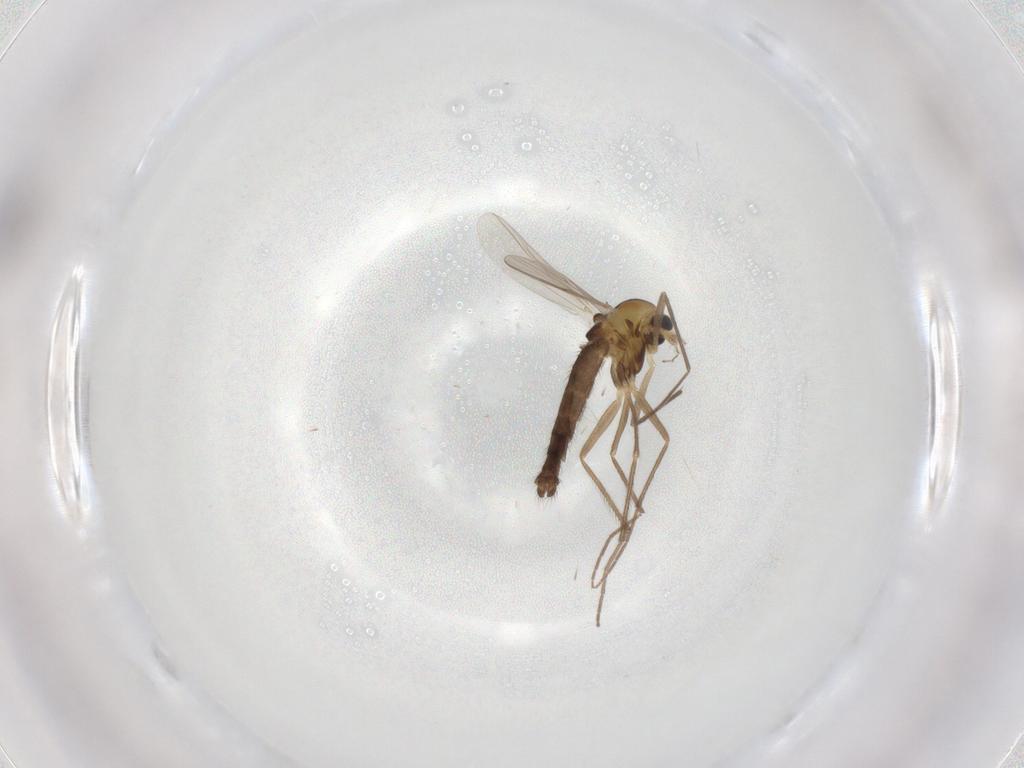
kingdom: Animalia
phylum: Arthropoda
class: Insecta
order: Diptera
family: Chironomidae
